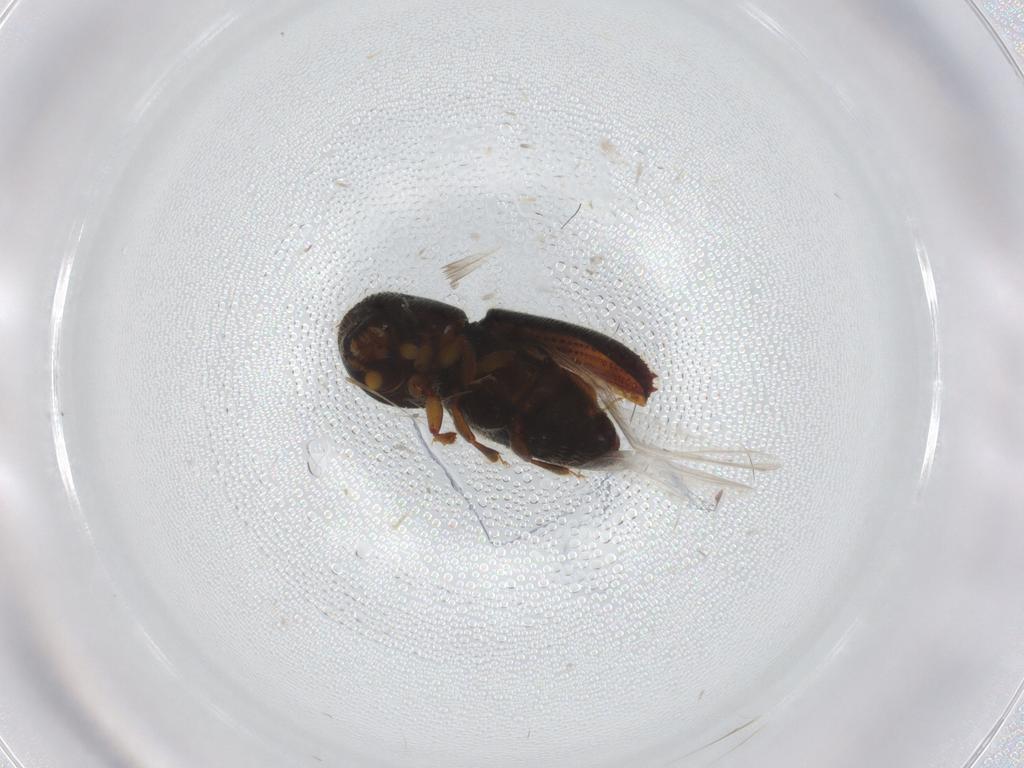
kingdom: Animalia
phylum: Arthropoda
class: Insecta
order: Coleoptera
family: Curculionidae
